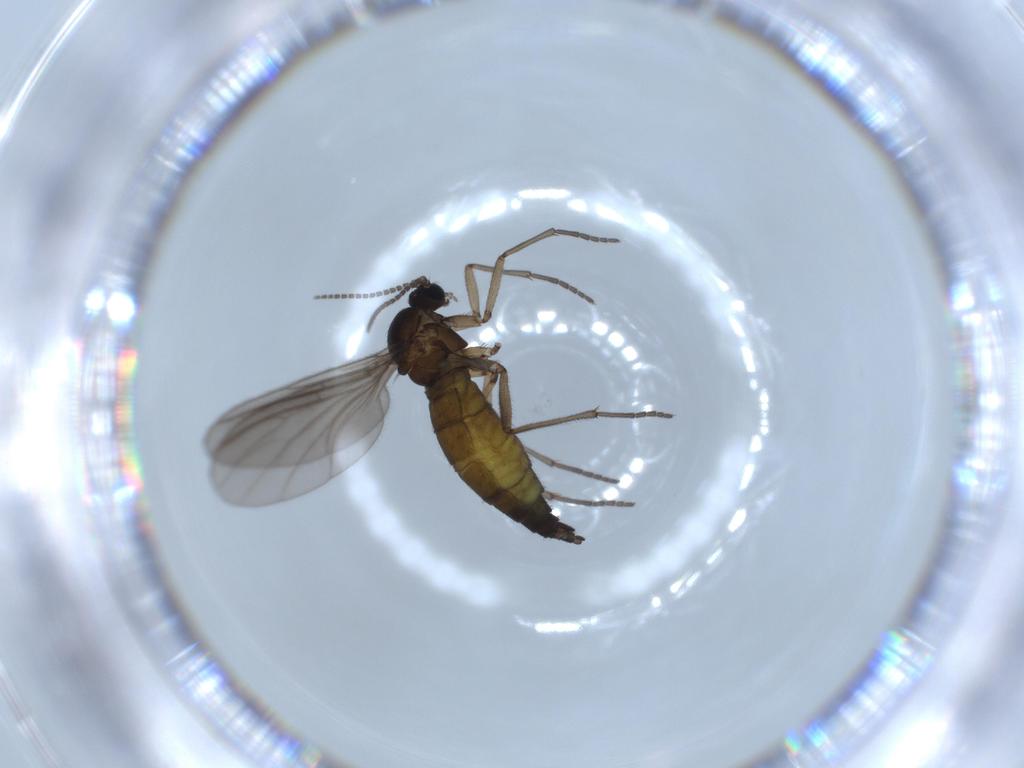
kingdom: Animalia
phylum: Arthropoda
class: Insecta
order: Diptera
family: Sciaridae
